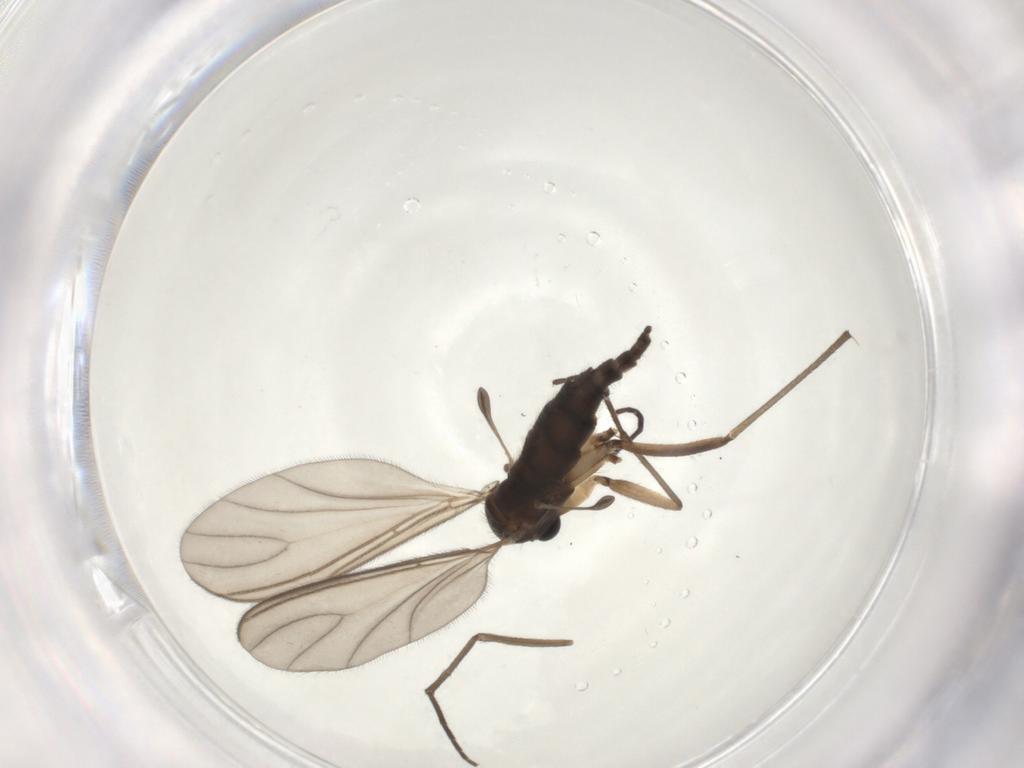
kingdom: Animalia
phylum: Arthropoda
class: Insecta
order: Diptera
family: Sciaridae
